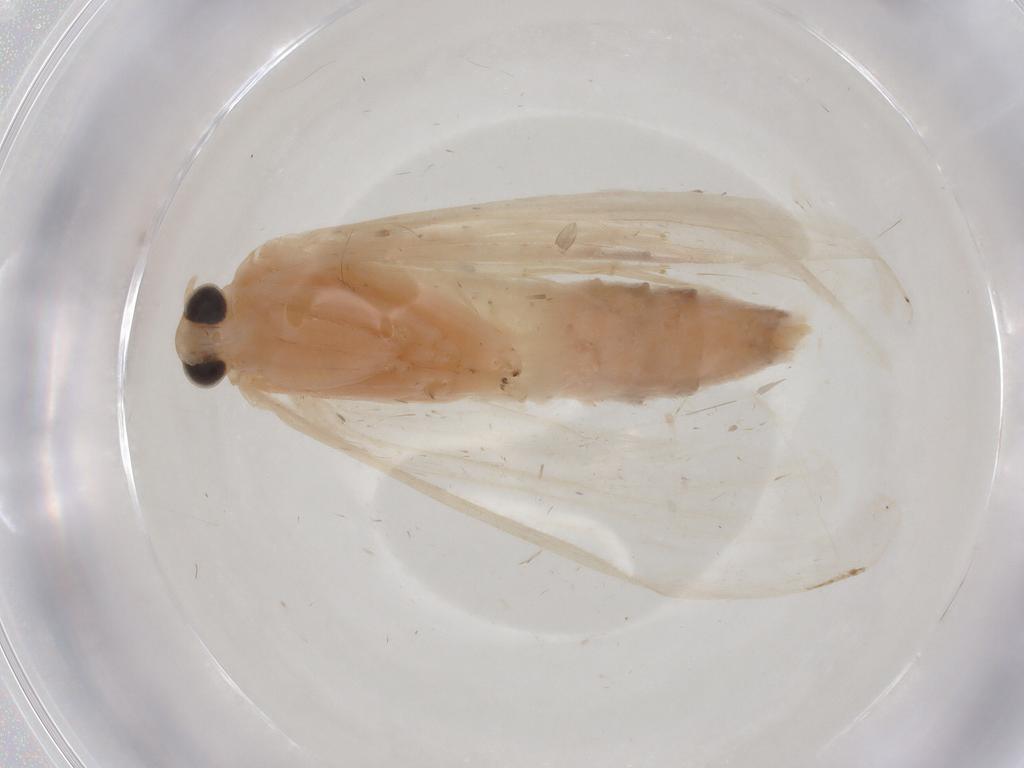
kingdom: Animalia
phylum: Arthropoda
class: Insecta
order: Lepidoptera
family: Crambidae
